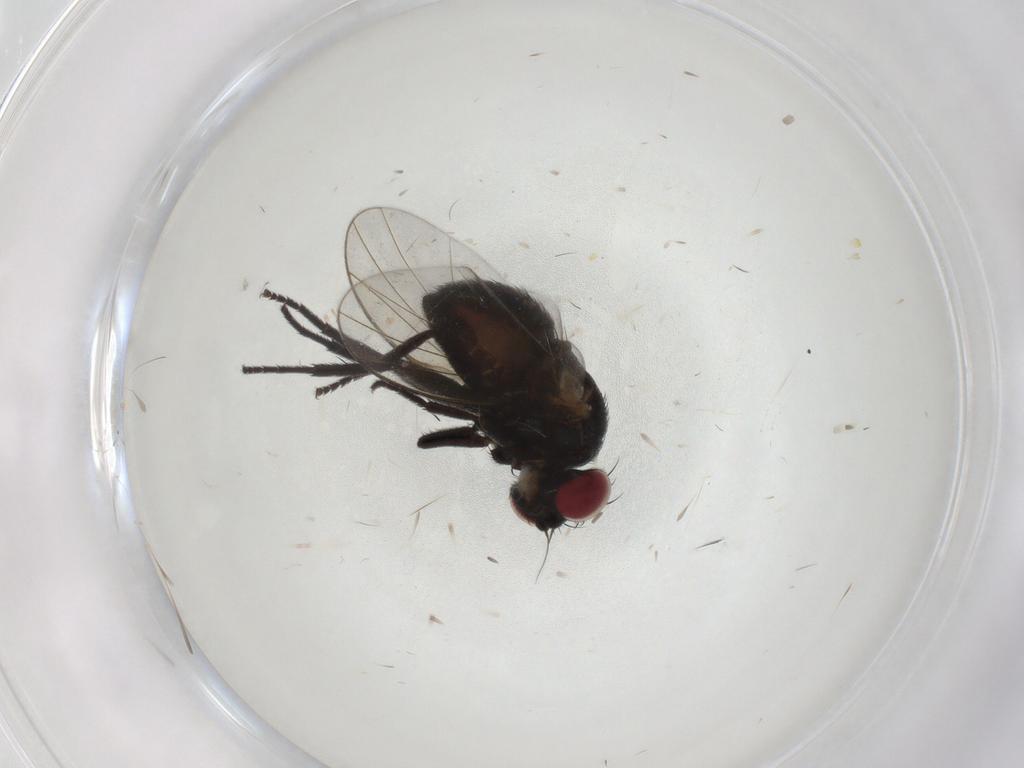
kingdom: Animalia
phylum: Arthropoda
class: Insecta
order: Diptera
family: Agromyzidae
